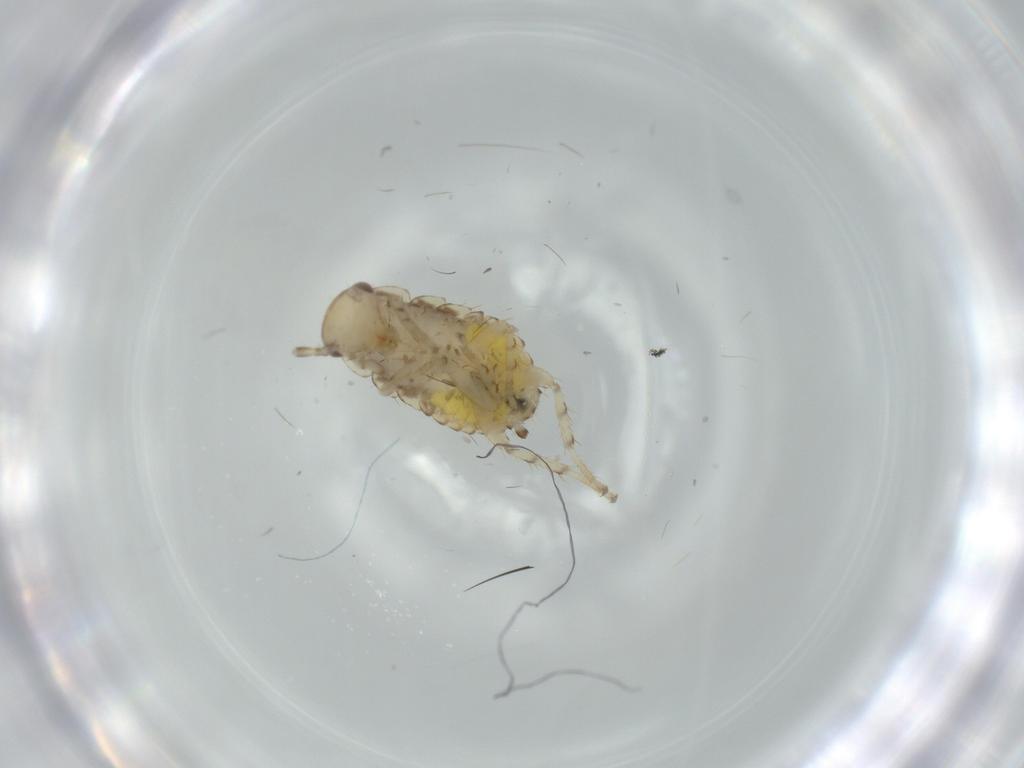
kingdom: Animalia
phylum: Arthropoda
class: Insecta
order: Blattodea
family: Ectobiidae
